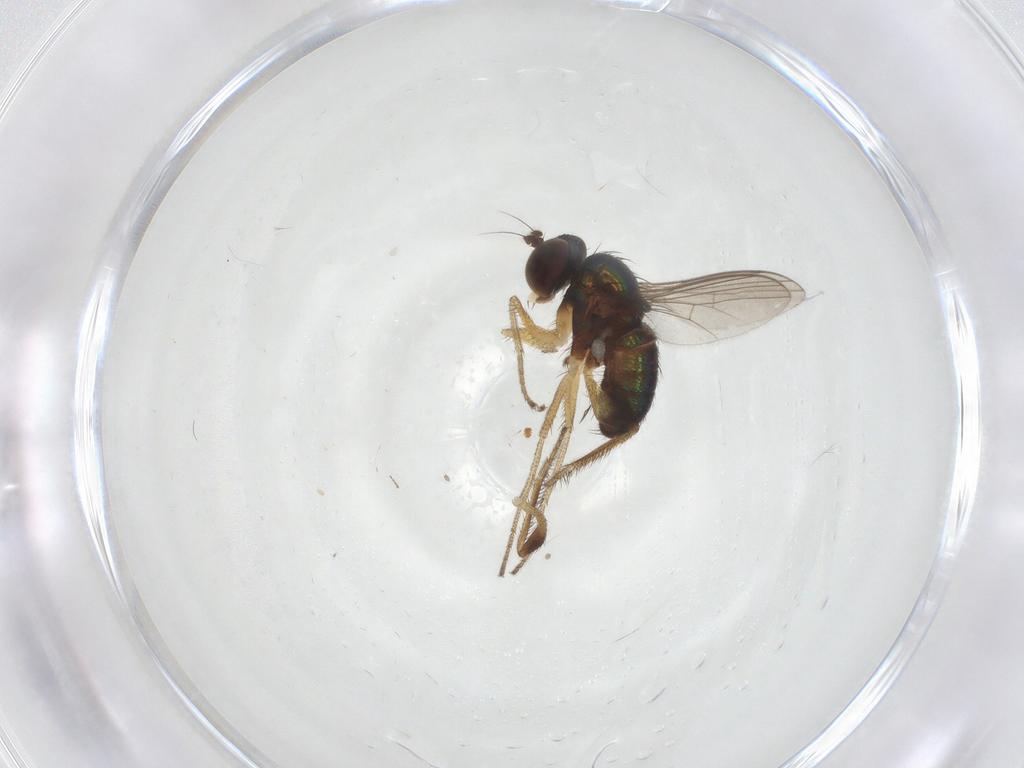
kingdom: Animalia
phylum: Arthropoda
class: Insecta
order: Diptera
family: Dolichopodidae
